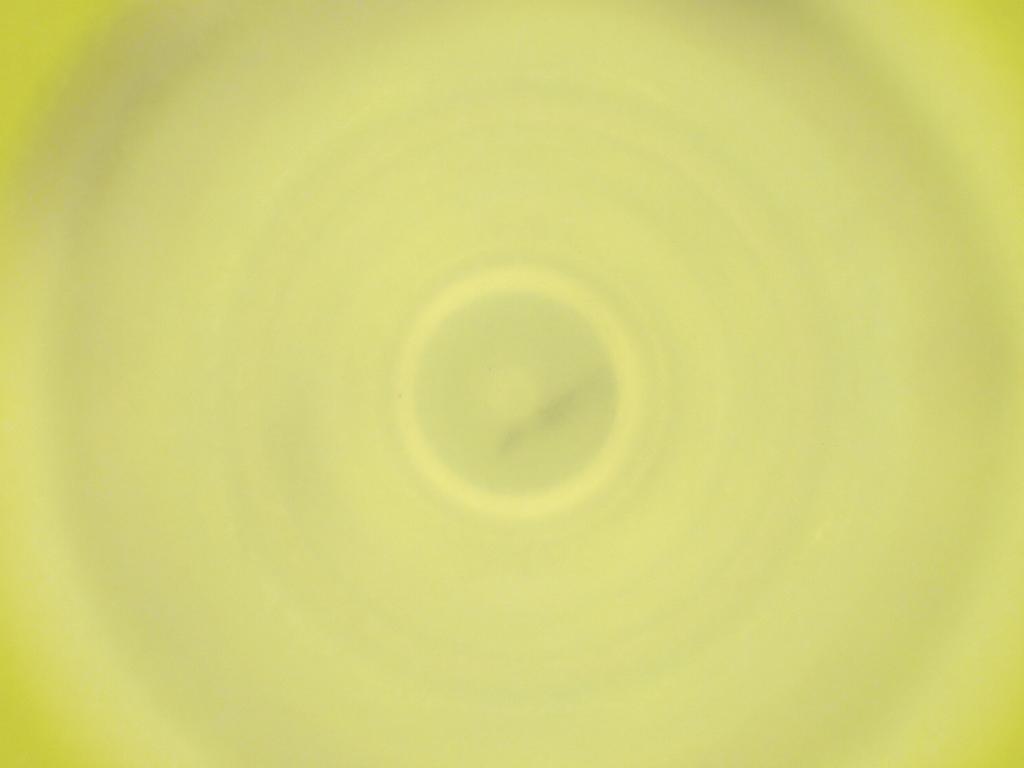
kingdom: Animalia
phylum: Arthropoda
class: Insecta
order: Diptera
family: Cecidomyiidae
